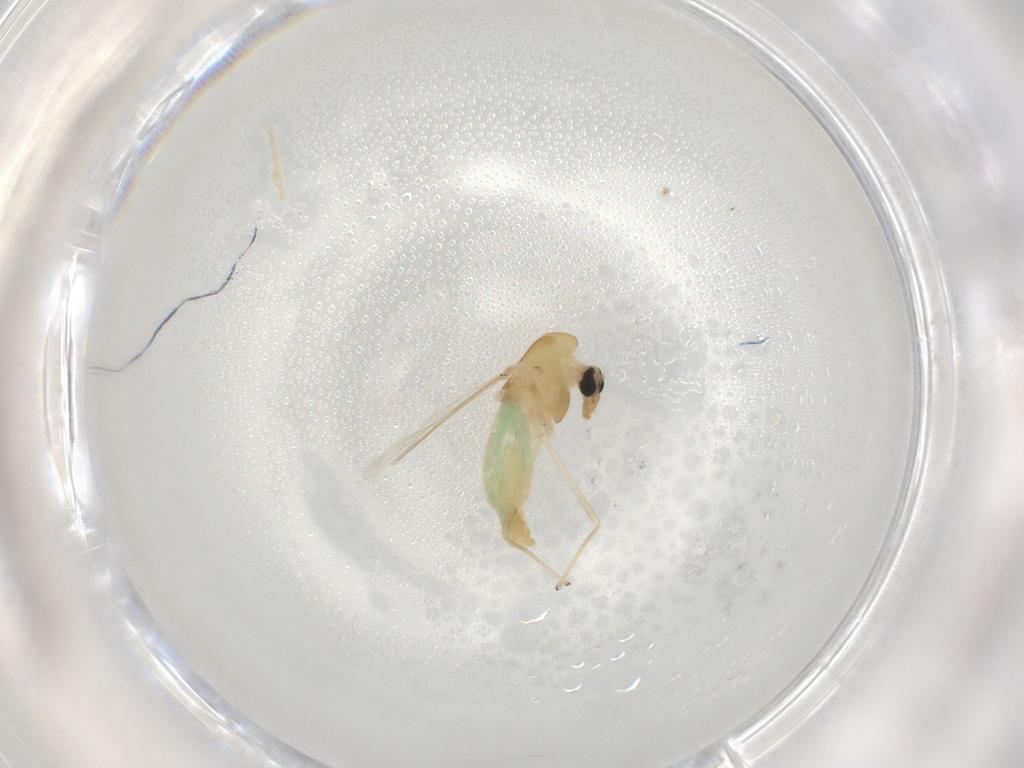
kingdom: Animalia
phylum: Arthropoda
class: Insecta
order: Diptera
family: Chironomidae
